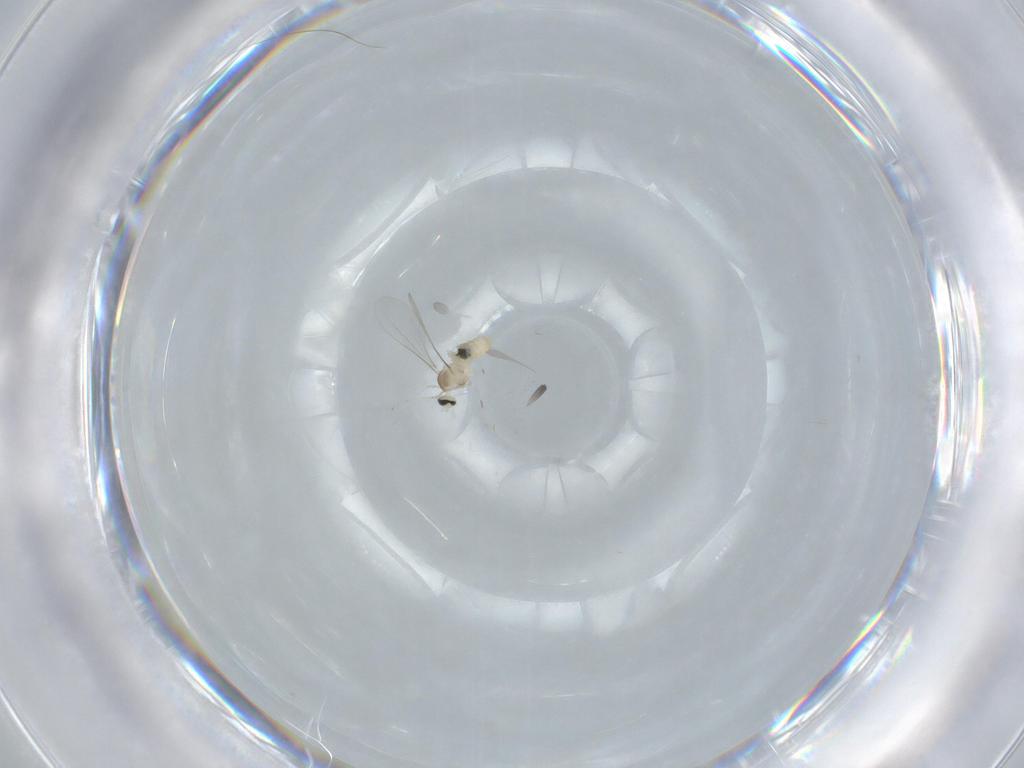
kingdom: Animalia
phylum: Arthropoda
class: Insecta
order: Diptera
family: Cecidomyiidae
